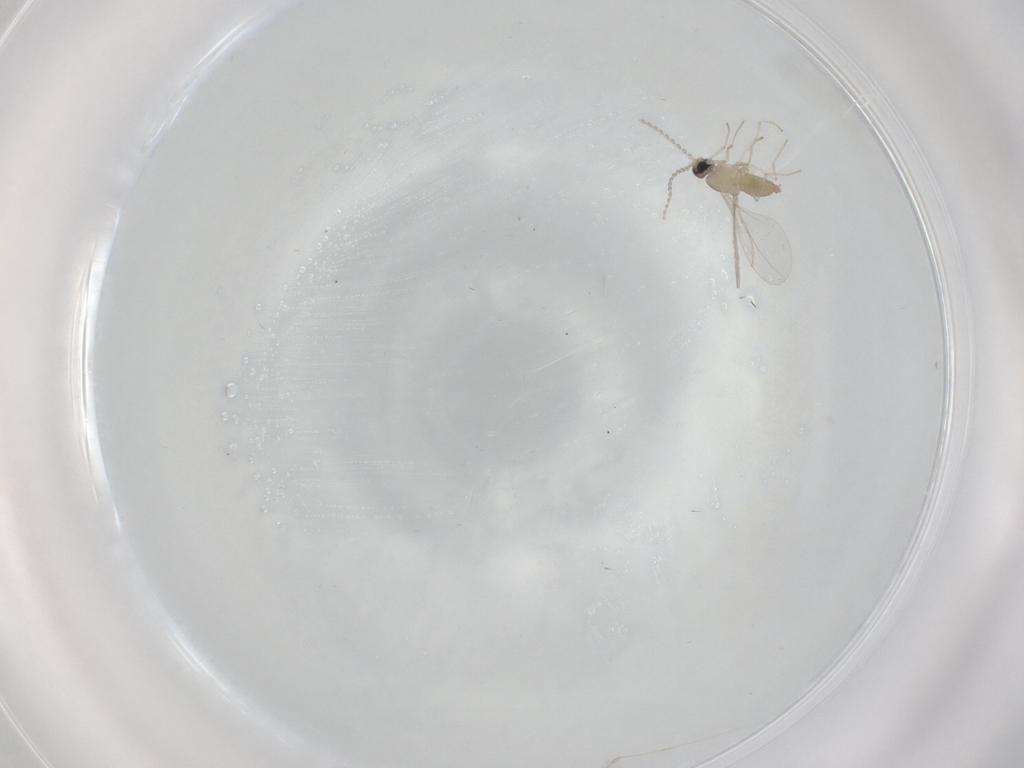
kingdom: Animalia
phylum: Arthropoda
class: Insecta
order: Diptera
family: Cecidomyiidae
